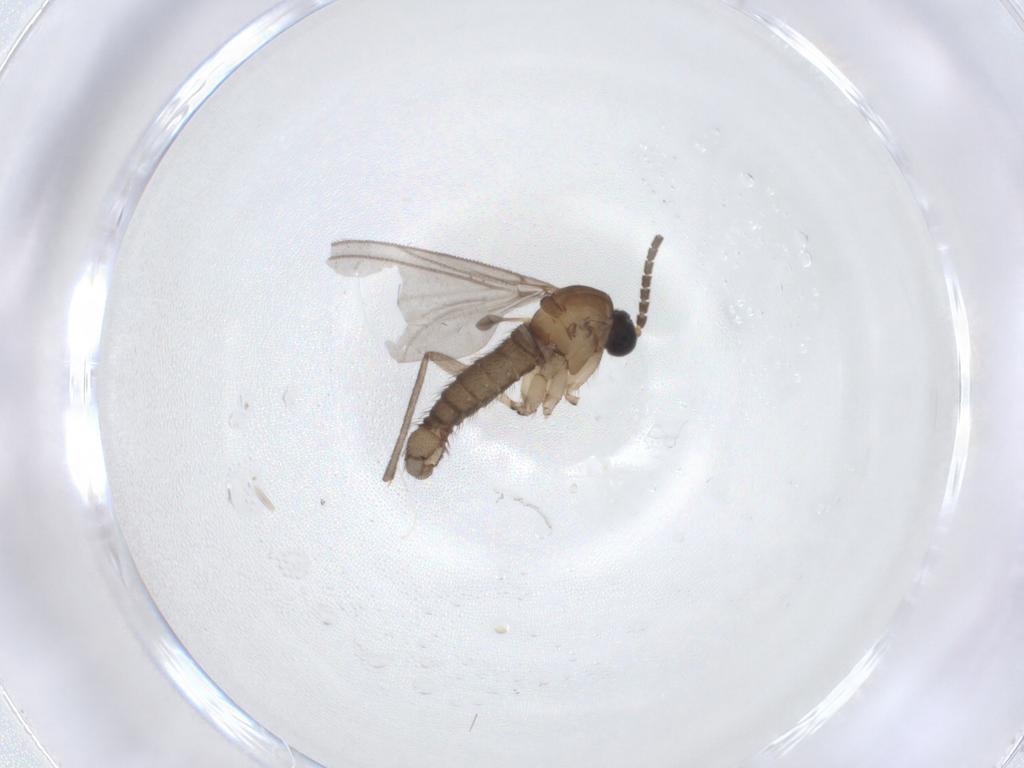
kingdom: Animalia
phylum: Arthropoda
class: Insecta
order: Diptera
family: Sciaridae
